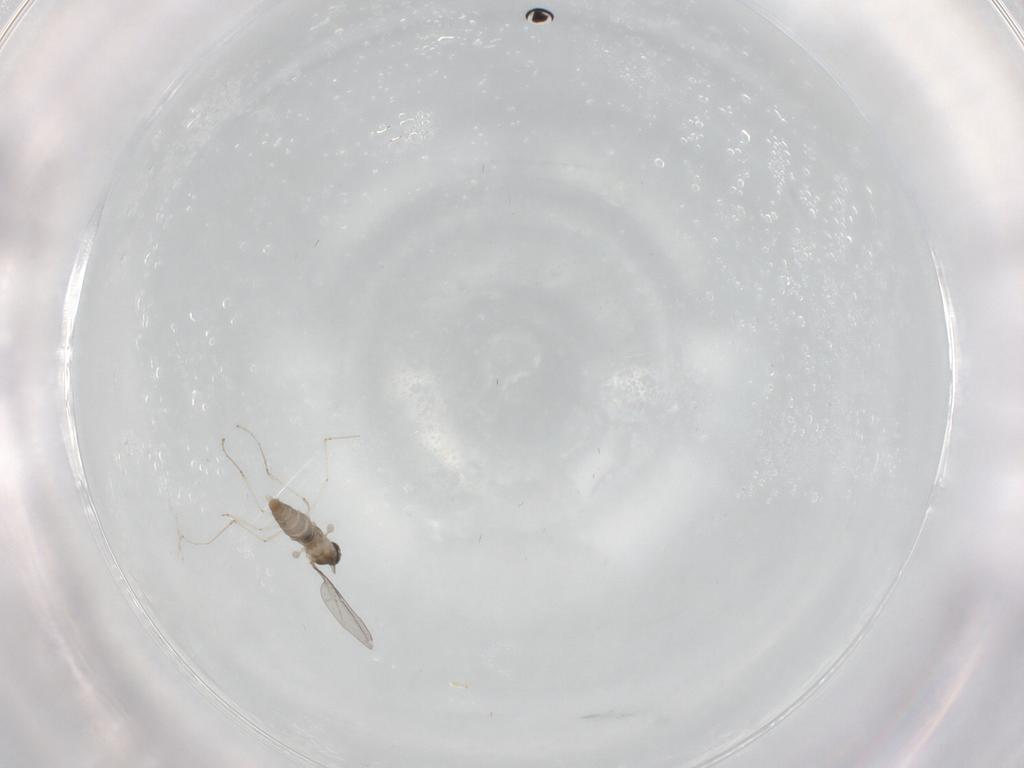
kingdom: Animalia
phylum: Arthropoda
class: Insecta
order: Diptera
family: Cecidomyiidae
